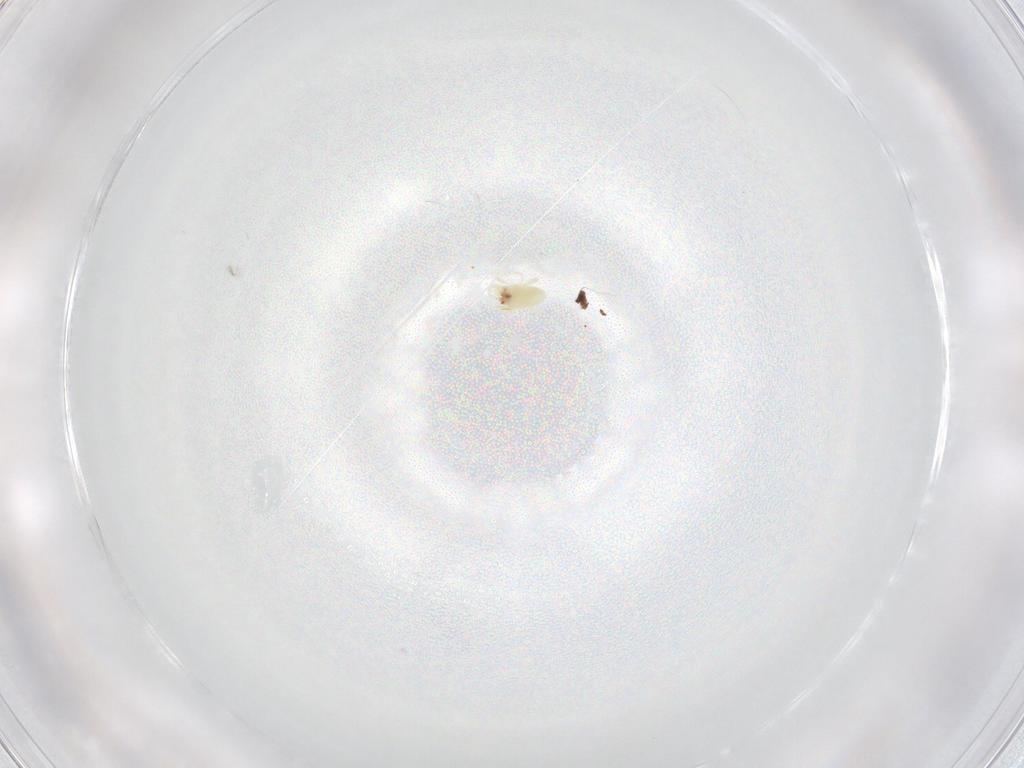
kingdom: Animalia
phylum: Arthropoda
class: Arachnida
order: Trombidiformes
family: Eupodidae
